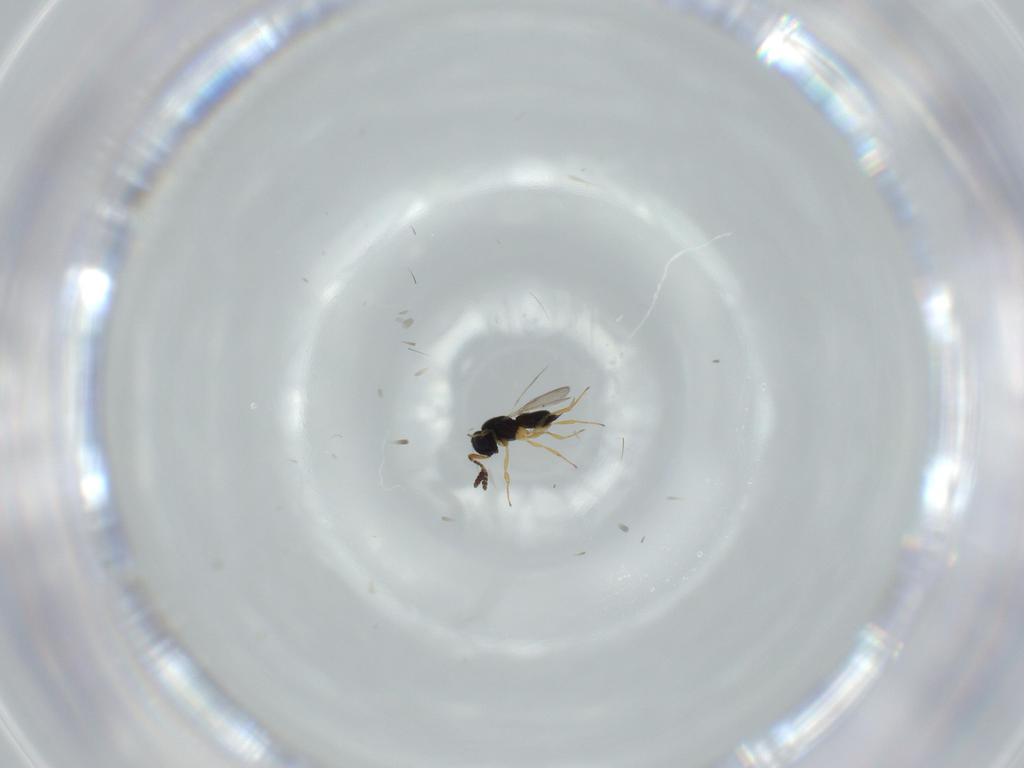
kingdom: Animalia
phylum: Arthropoda
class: Insecta
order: Hymenoptera
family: Scelionidae
